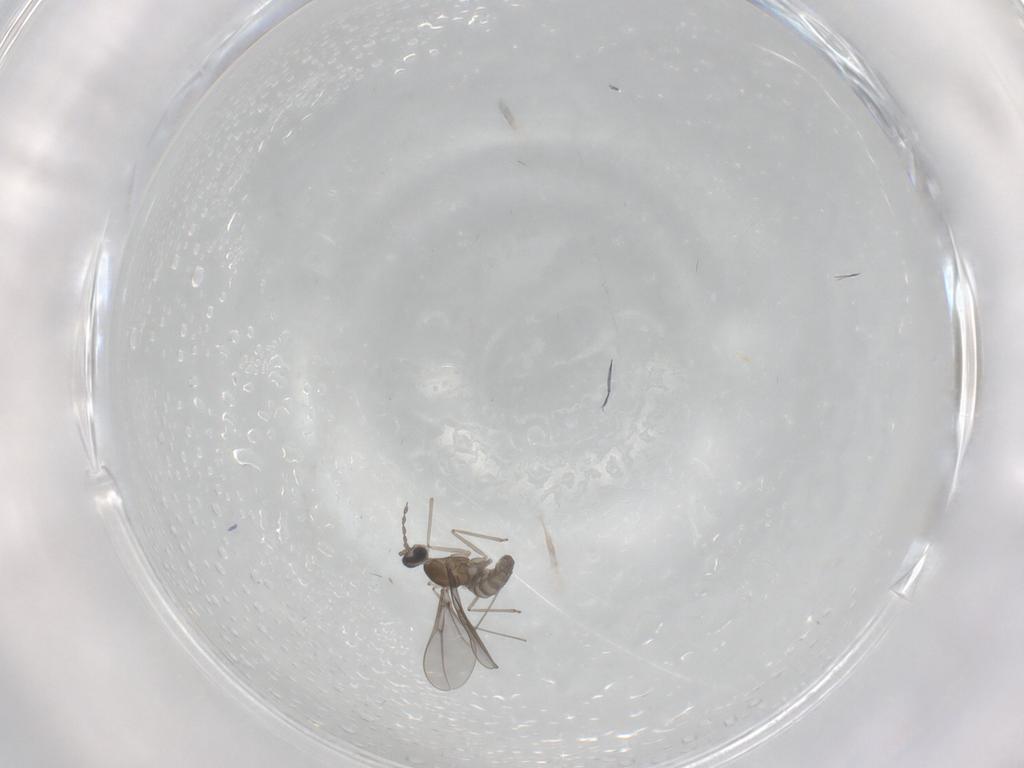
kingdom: Animalia
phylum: Arthropoda
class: Insecta
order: Diptera
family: Cecidomyiidae
